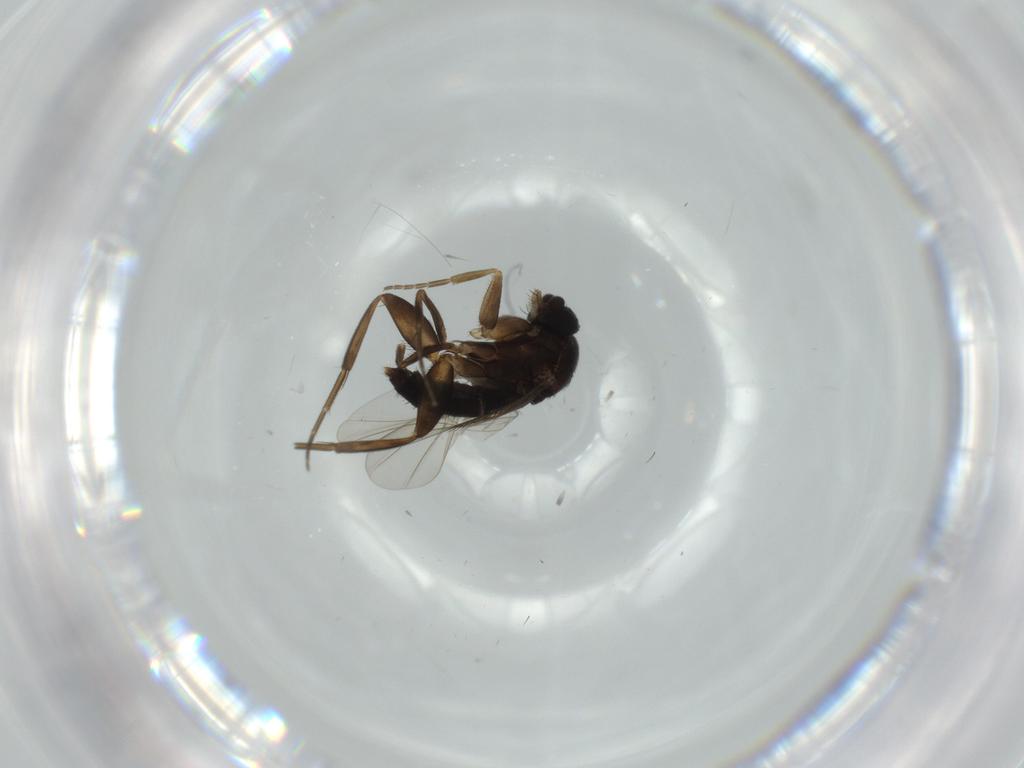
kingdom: Animalia
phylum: Arthropoda
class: Insecta
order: Diptera
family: Phoridae
